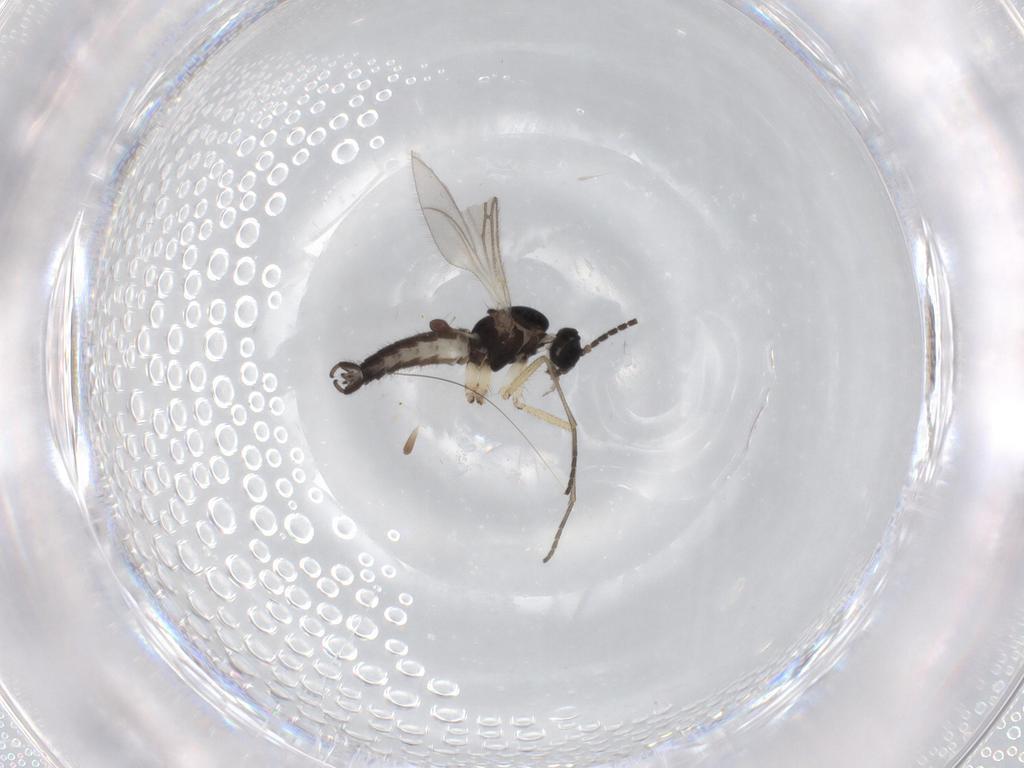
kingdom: Animalia
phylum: Arthropoda
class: Insecta
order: Diptera
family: Sciaridae
